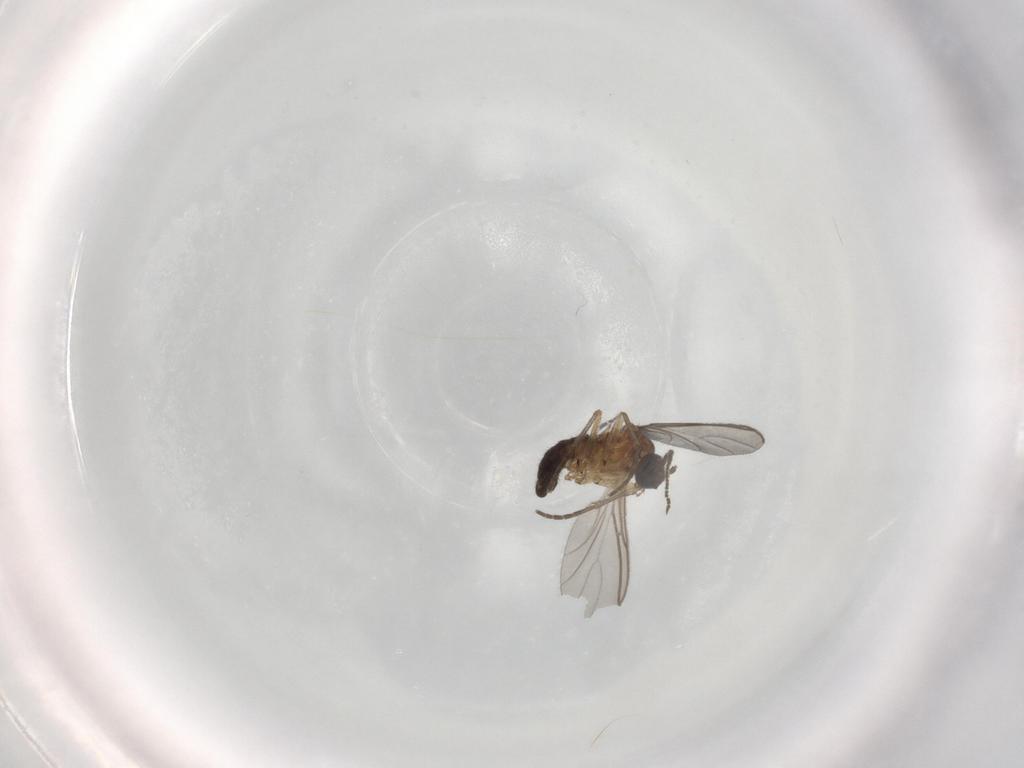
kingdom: Animalia
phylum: Arthropoda
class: Insecta
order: Diptera
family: Sciaridae
